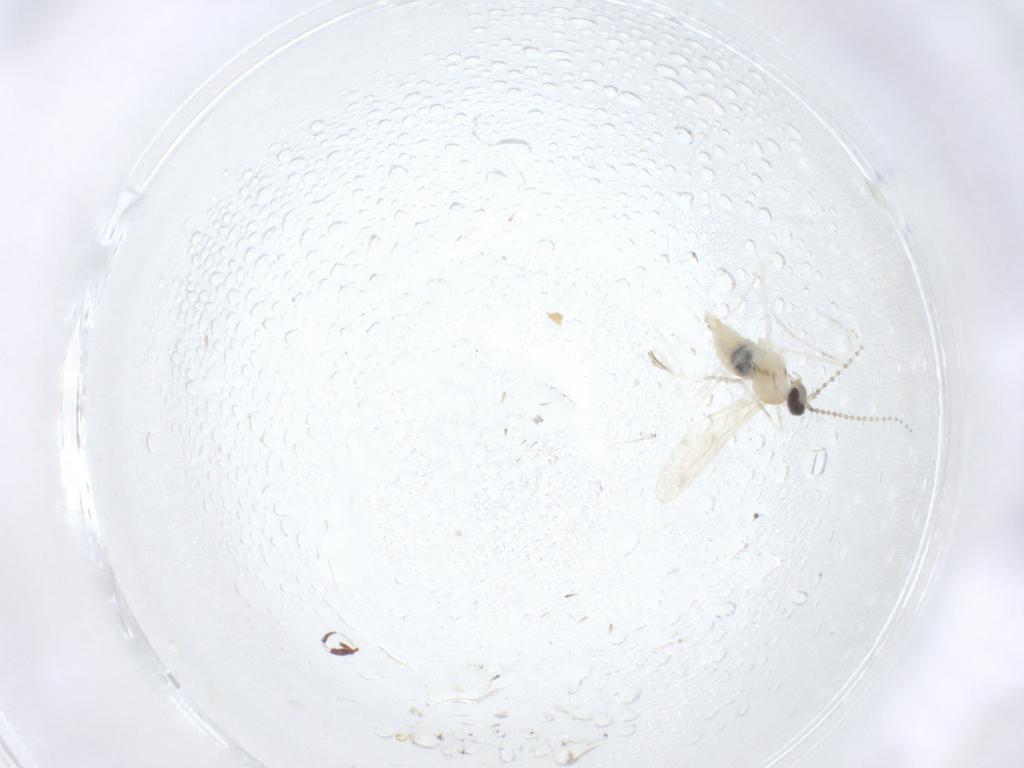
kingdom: Animalia
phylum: Arthropoda
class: Insecta
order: Diptera
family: Cecidomyiidae
